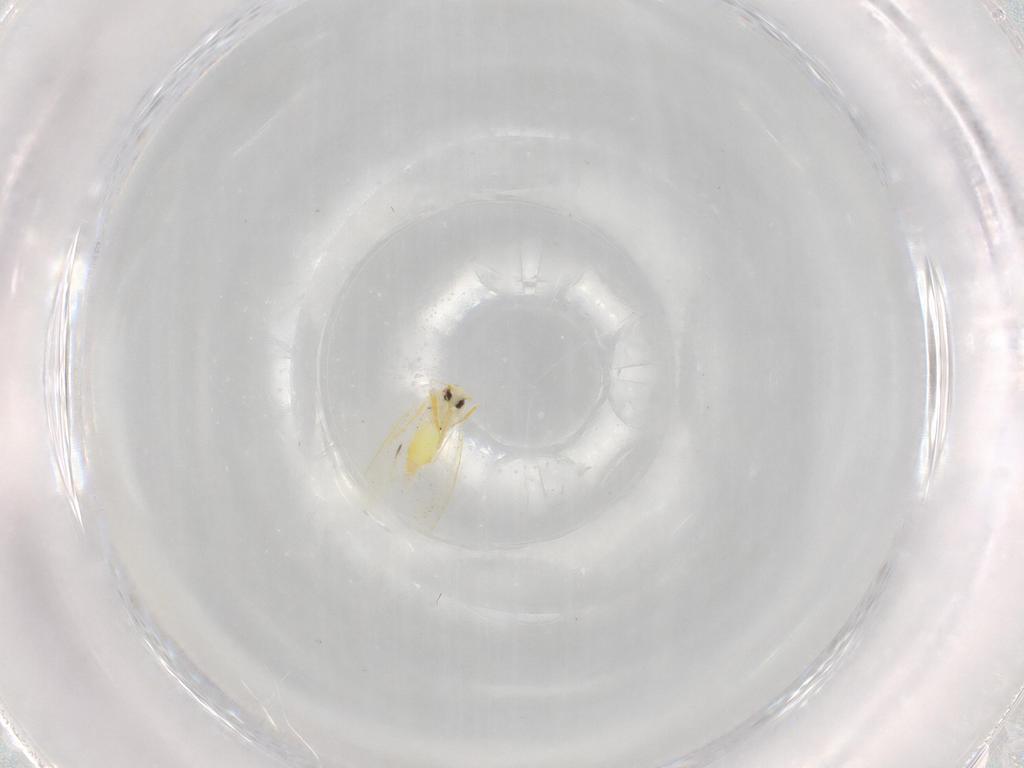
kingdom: Animalia
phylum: Arthropoda
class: Insecta
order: Hemiptera
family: Aleyrodidae
